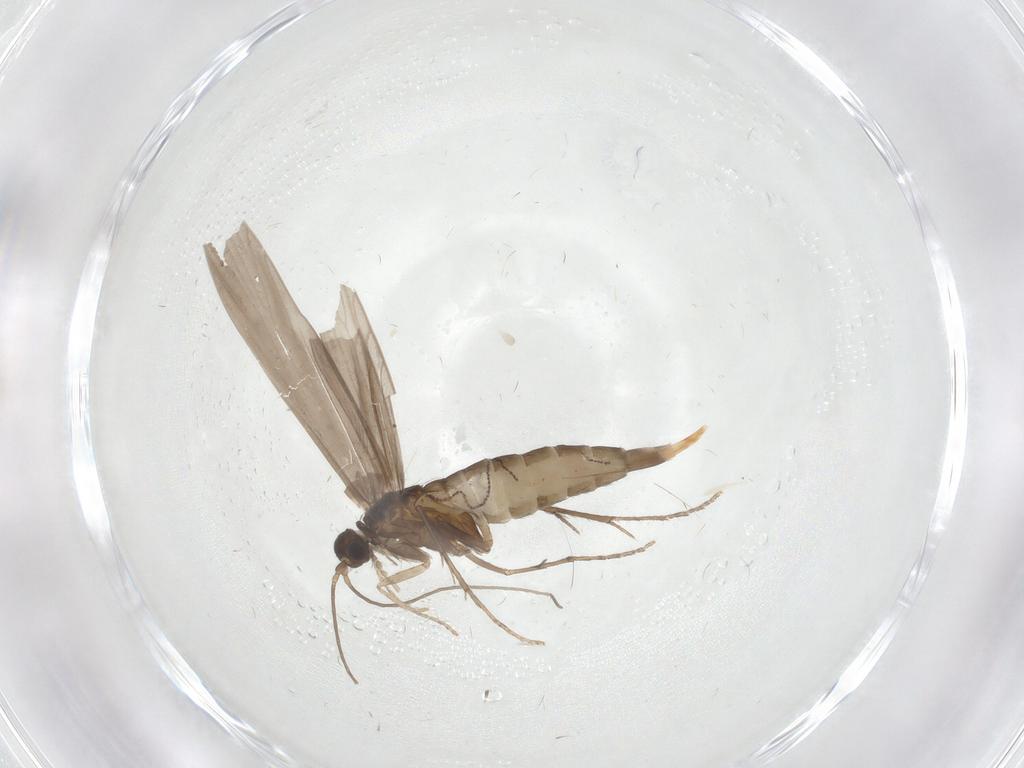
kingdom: Animalia
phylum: Arthropoda
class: Insecta
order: Trichoptera
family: Xiphocentronidae
